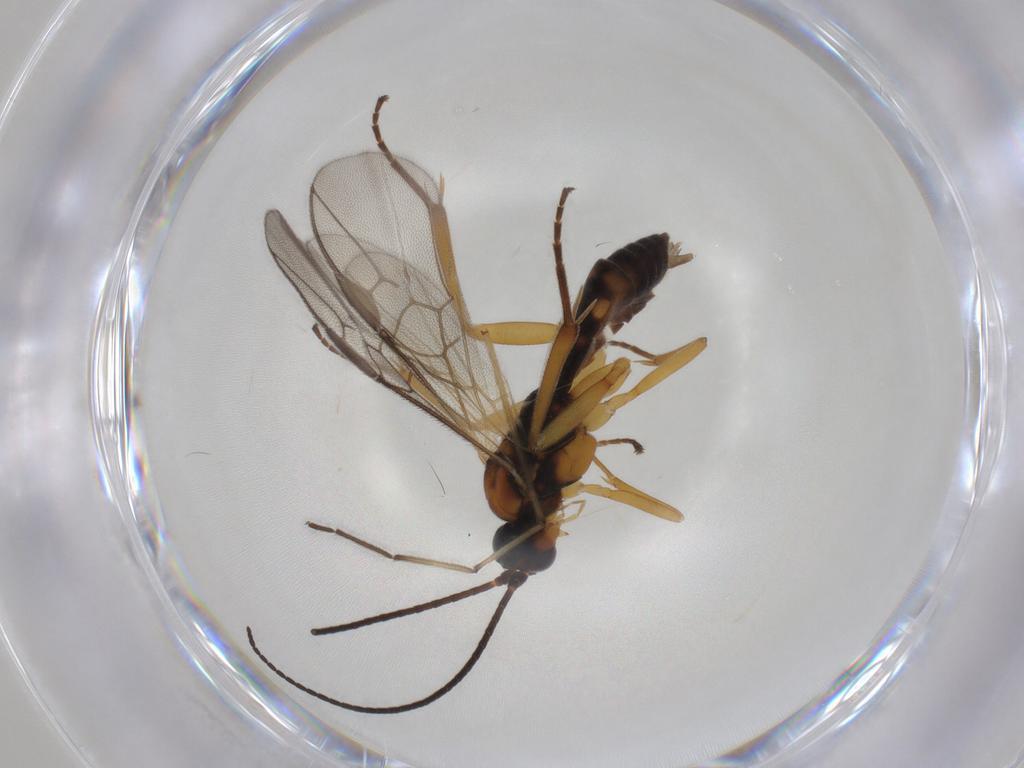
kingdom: Animalia
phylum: Arthropoda
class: Insecta
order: Hymenoptera
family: Braconidae
